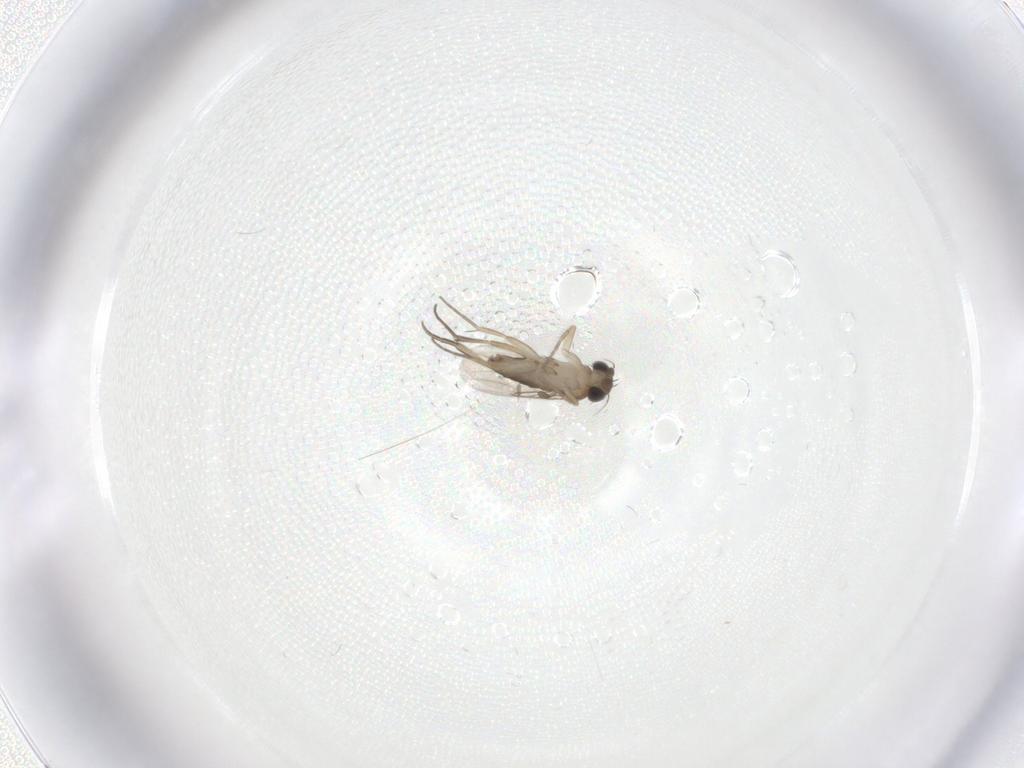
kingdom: Animalia
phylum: Arthropoda
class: Insecta
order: Diptera
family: Phoridae
